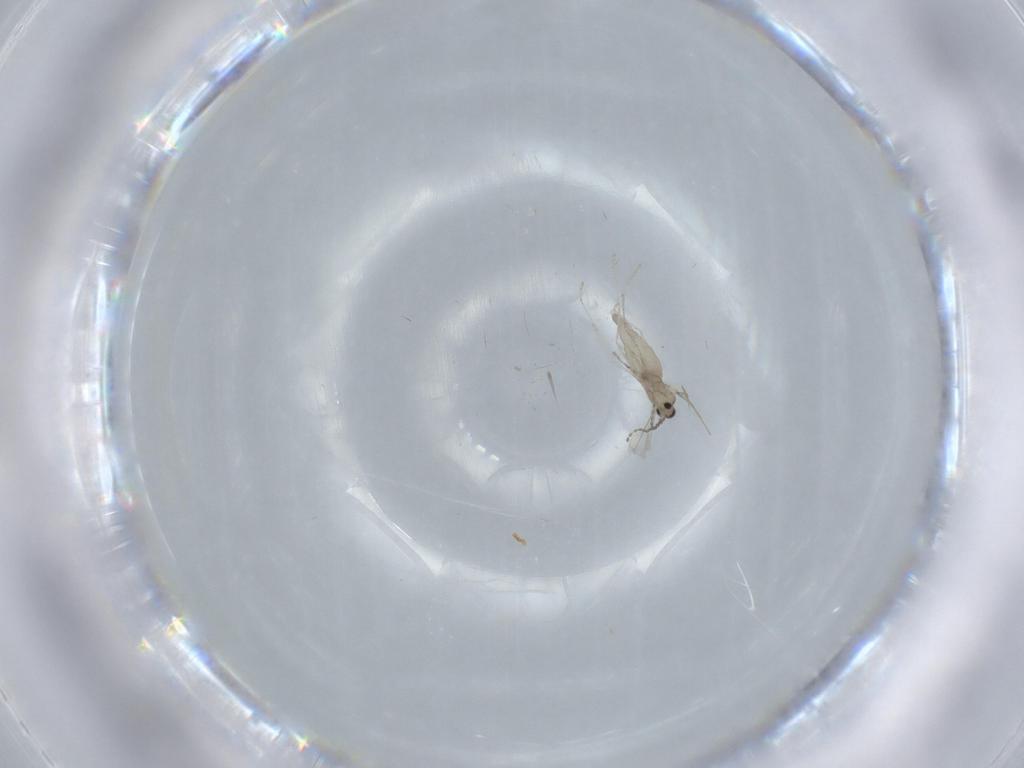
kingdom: Animalia
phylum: Arthropoda
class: Insecta
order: Diptera
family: Cecidomyiidae
